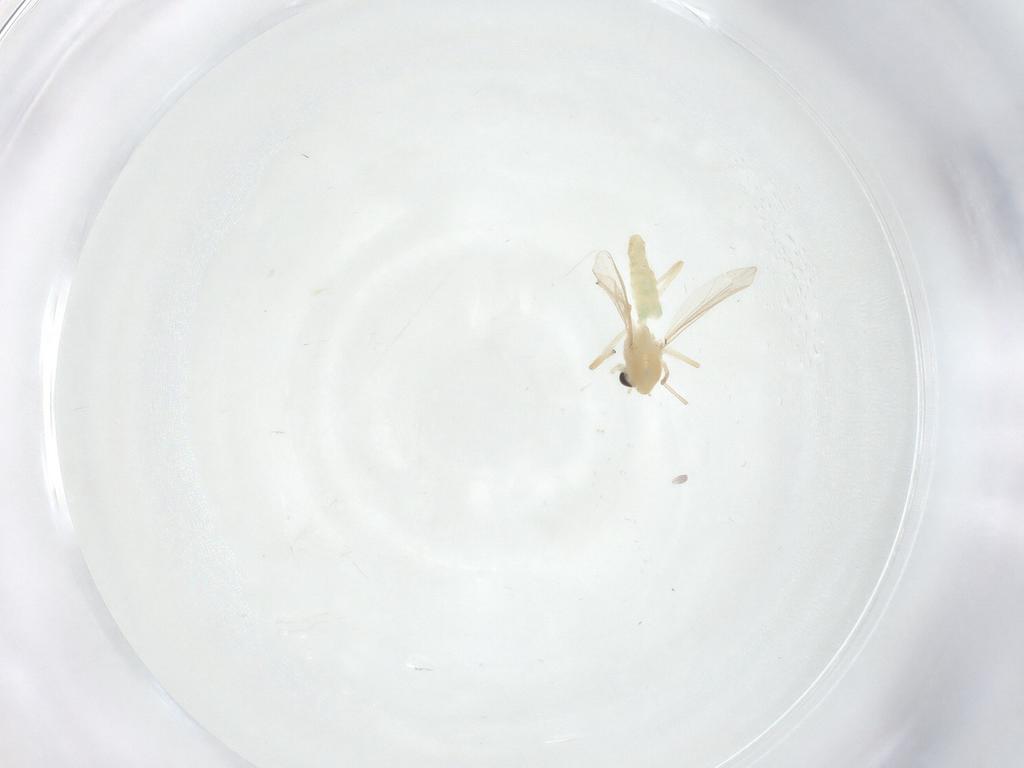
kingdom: Animalia
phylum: Arthropoda
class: Insecta
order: Diptera
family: Chironomidae
